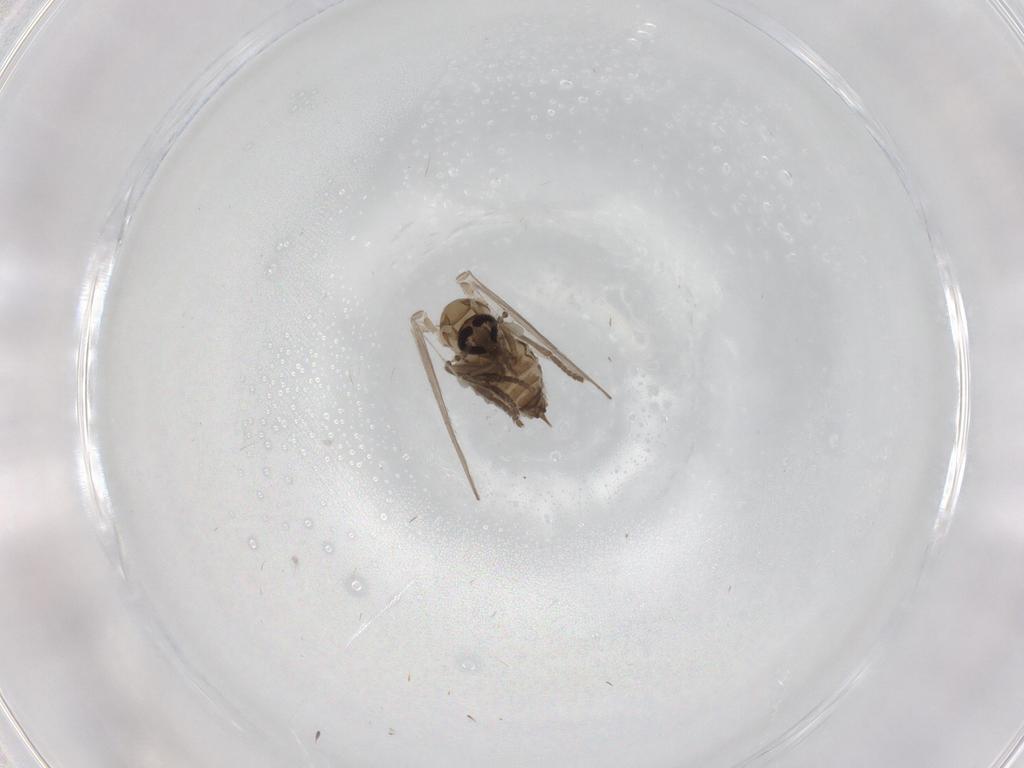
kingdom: Animalia
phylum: Arthropoda
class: Insecta
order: Diptera
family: Psychodidae
